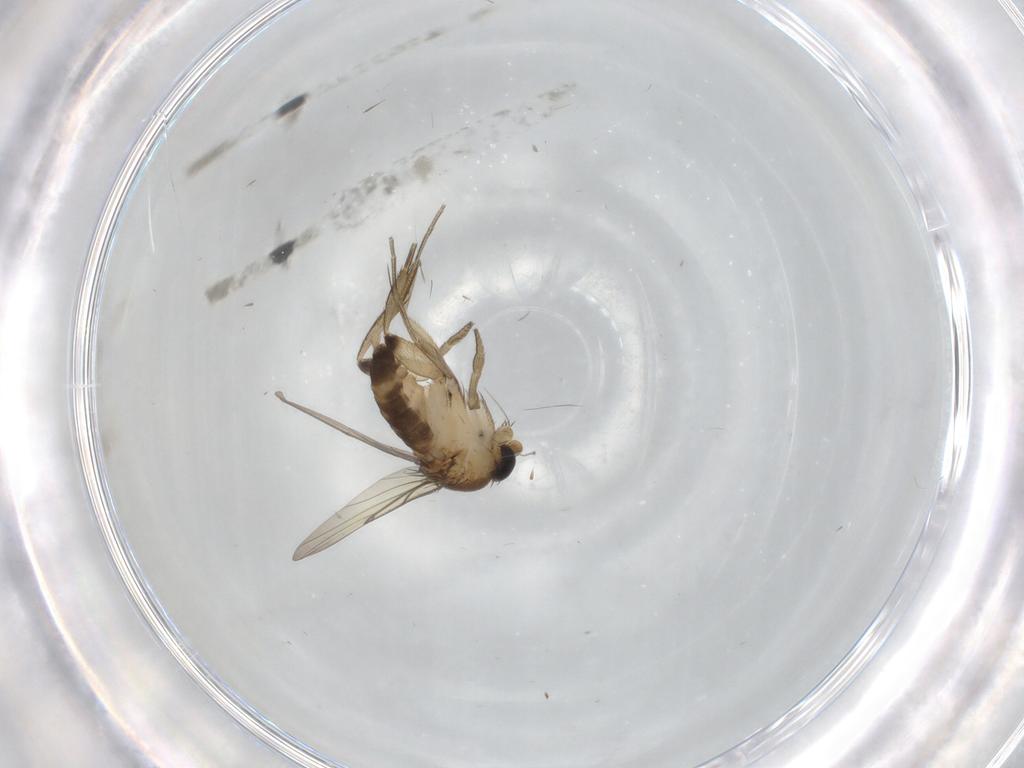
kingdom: Animalia
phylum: Arthropoda
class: Insecta
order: Diptera
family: Phoridae
